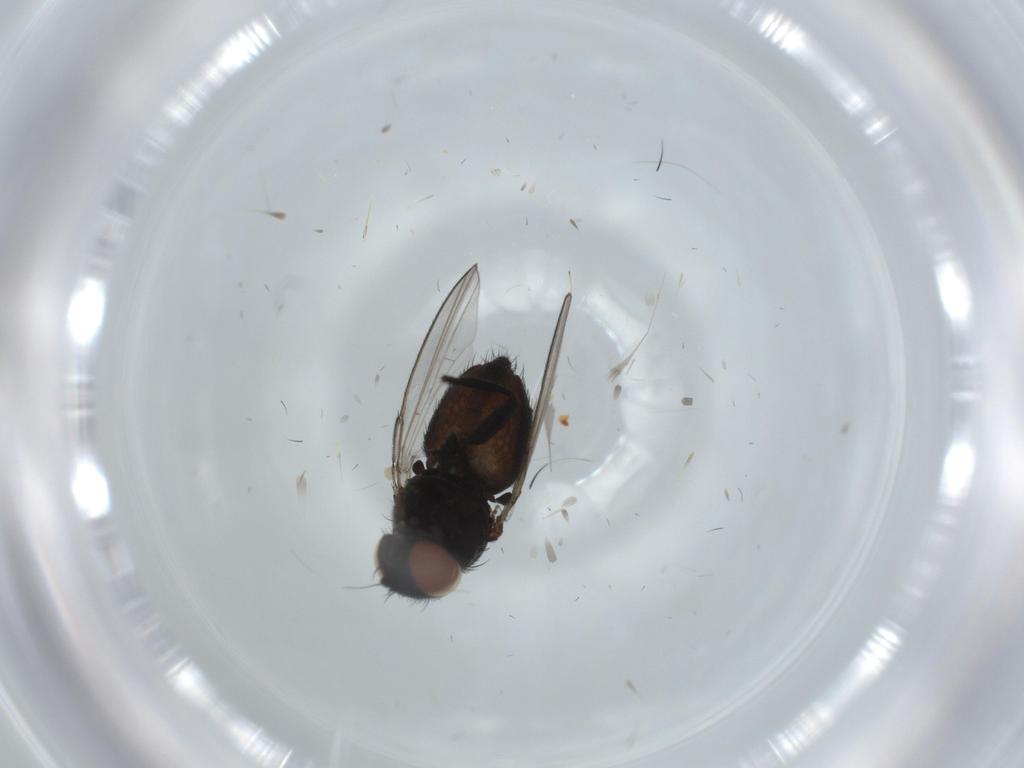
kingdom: Animalia
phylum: Arthropoda
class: Insecta
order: Diptera
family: Milichiidae
